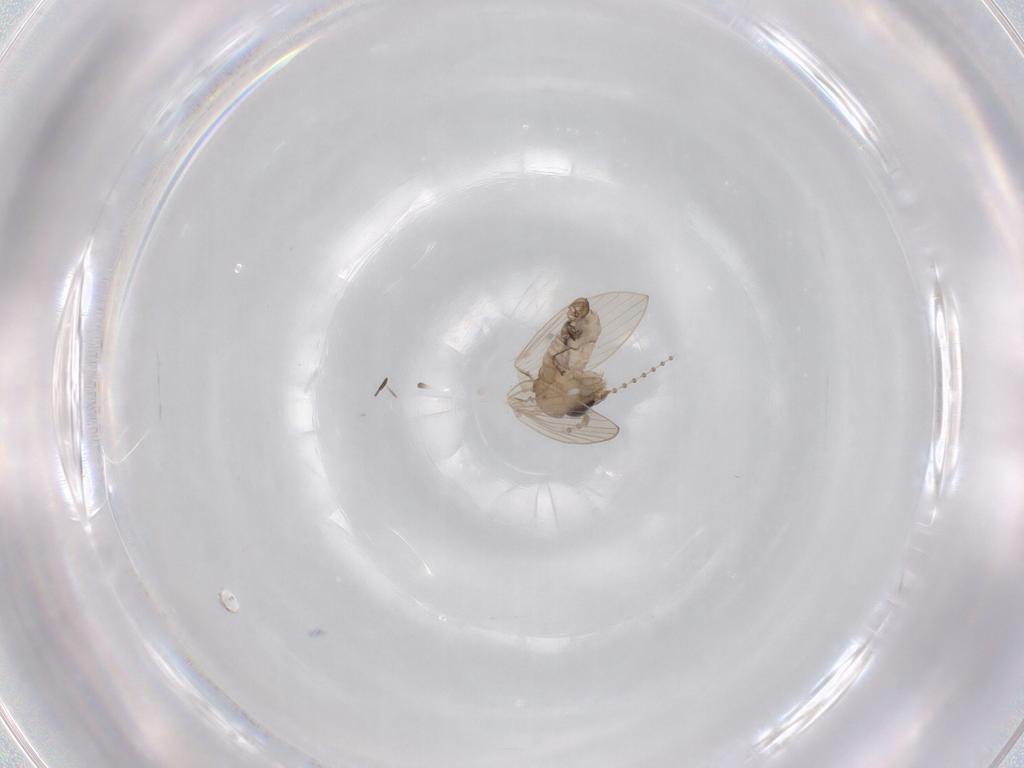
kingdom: Animalia
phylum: Arthropoda
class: Insecta
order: Diptera
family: Psychodidae
